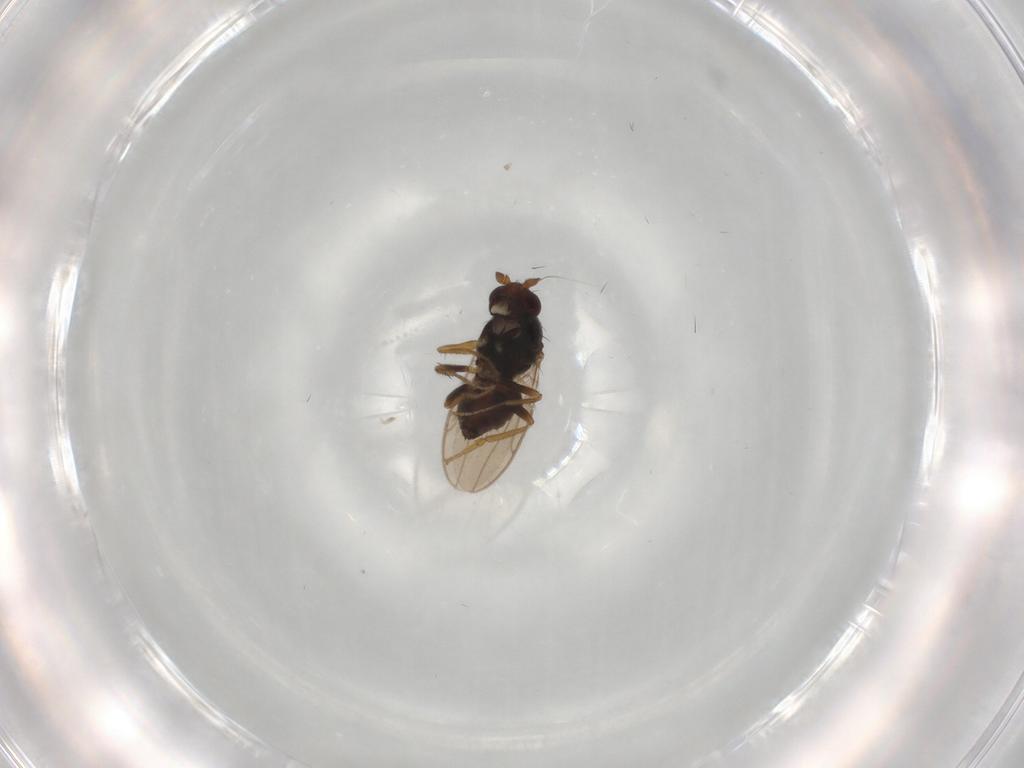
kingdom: Animalia
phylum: Arthropoda
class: Insecta
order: Diptera
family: Sphaeroceridae
